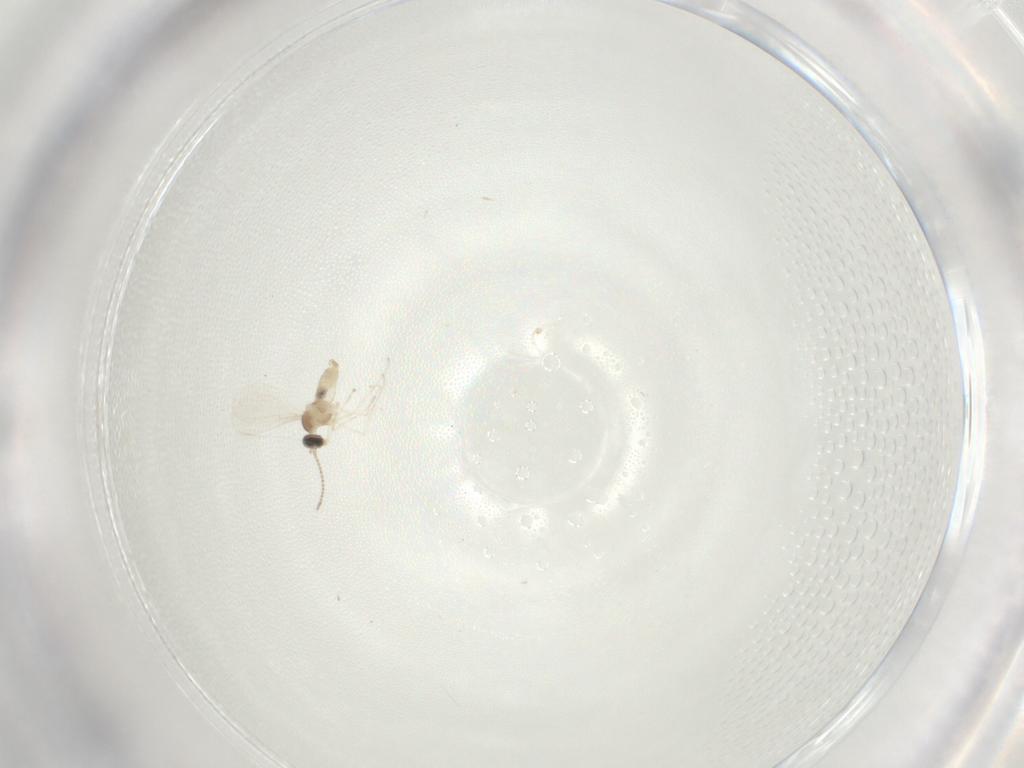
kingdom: Animalia
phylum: Arthropoda
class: Insecta
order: Diptera
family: Cecidomyiidae
